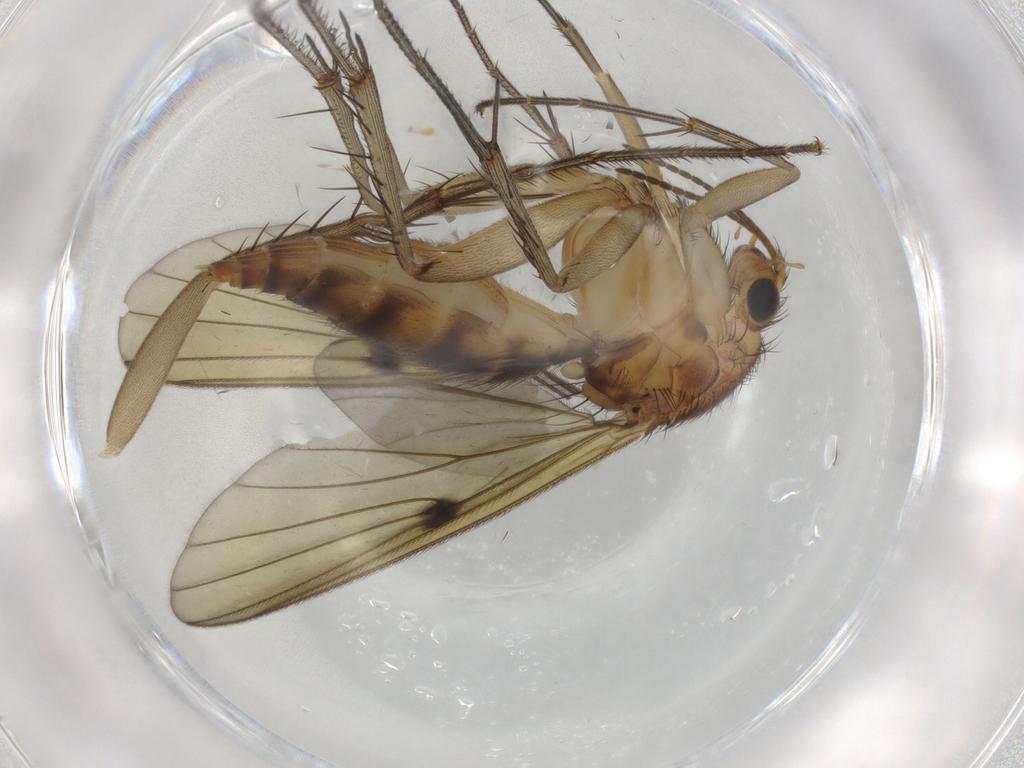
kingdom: Animalia
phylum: Arthropoda
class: Insecta
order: Diptera
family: Mycetophilidae
